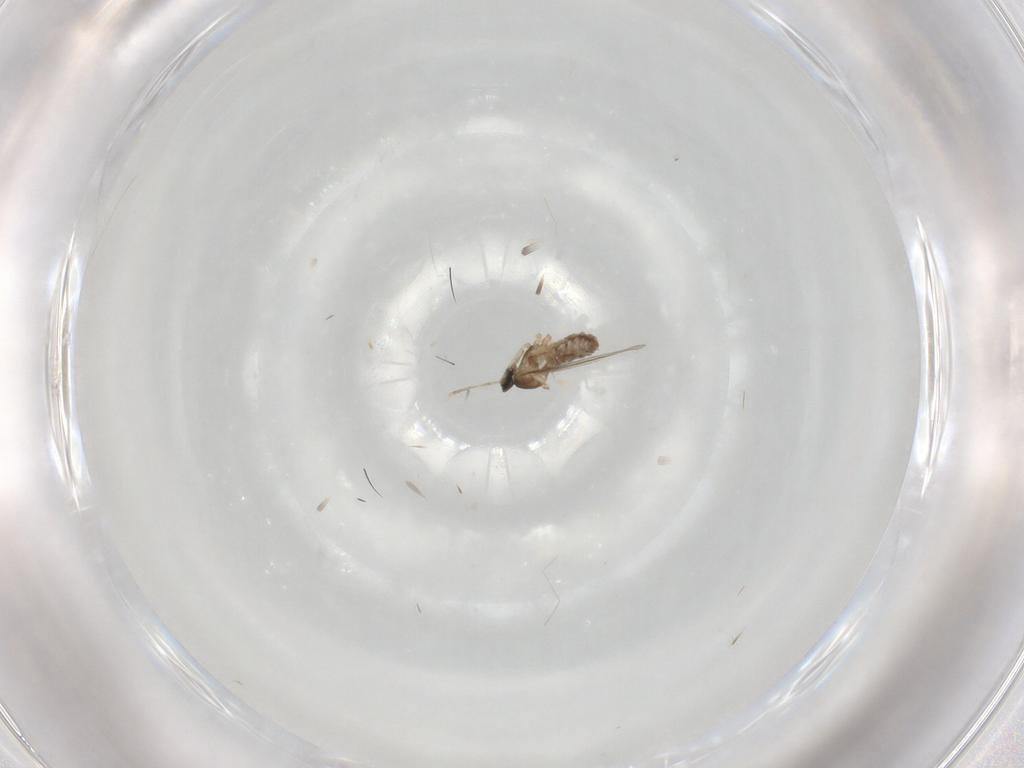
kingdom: Animalia
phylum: Arthropoda
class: Insecta
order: Diptera
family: Cecidomyiidae
